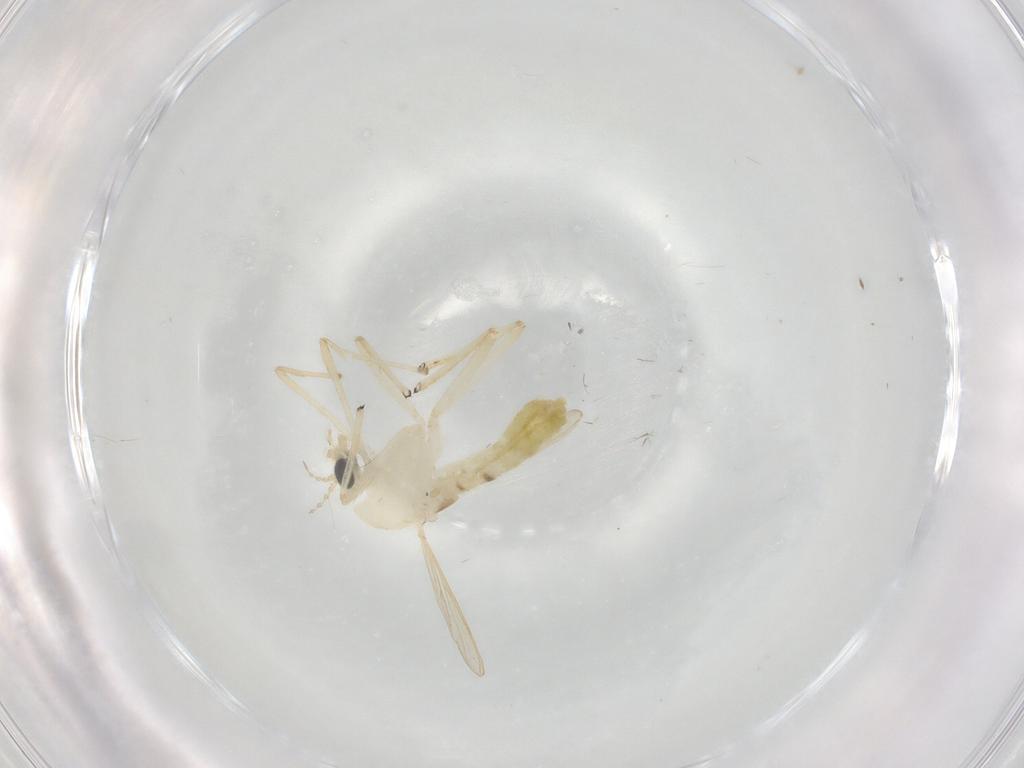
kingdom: Animalia
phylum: Arthropoda
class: Insecta
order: Diptera
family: Chironomidae
